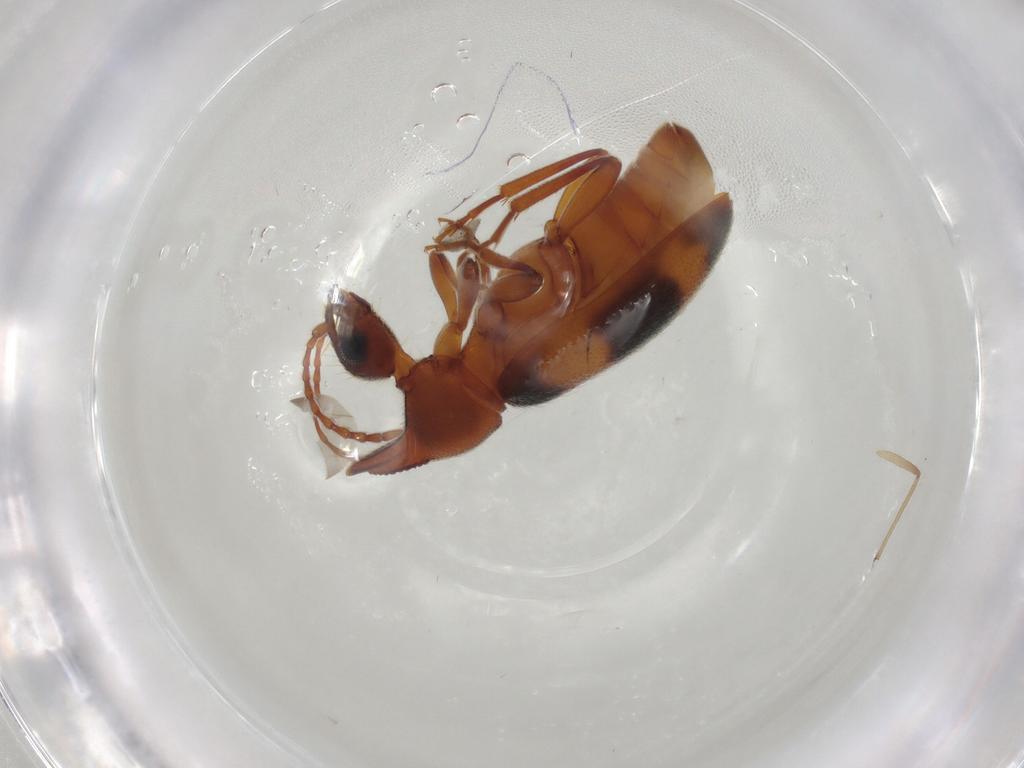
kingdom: Animalia
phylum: Arthropoda
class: Insecta
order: Coleoptera
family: Anthicidae
